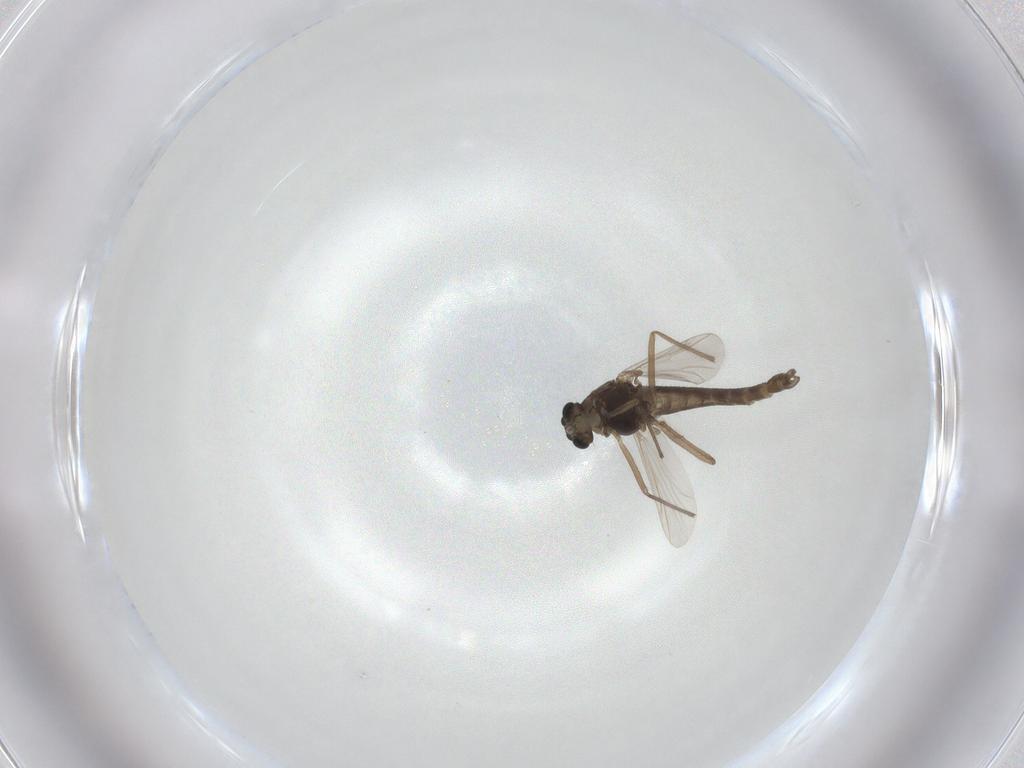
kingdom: Animalia
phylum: Arthropoda
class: Insecta
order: Diptera
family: Chironomidae
